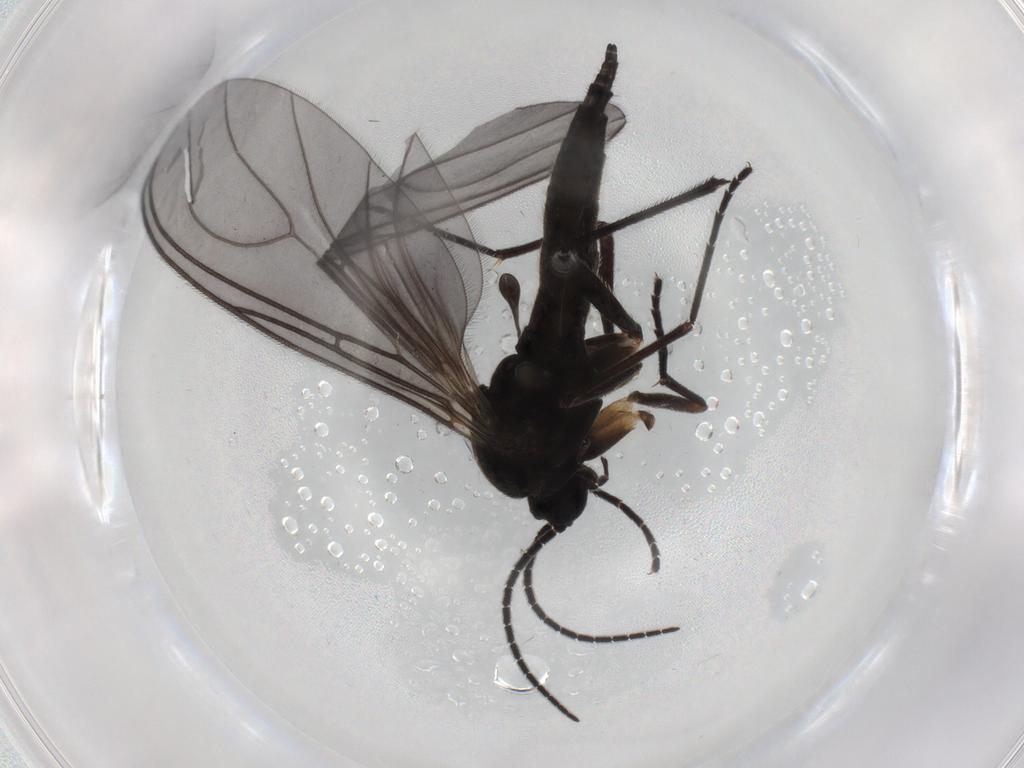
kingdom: Animalia
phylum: Arthropoda
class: Insecta
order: Diptera
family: Sciaridae
